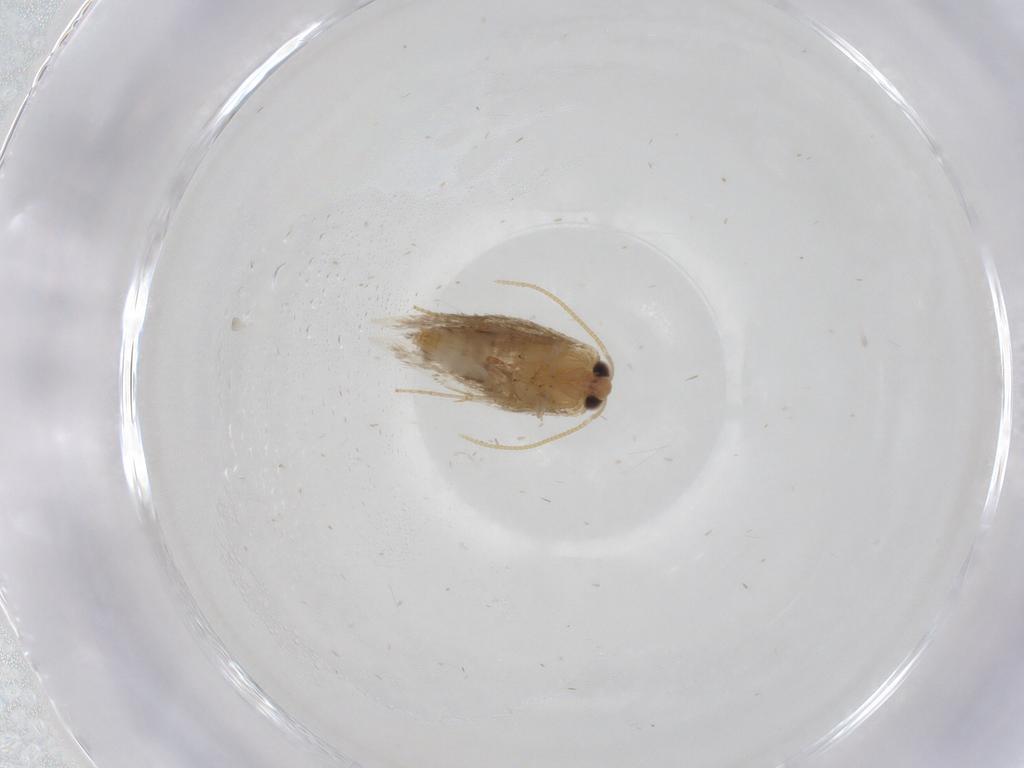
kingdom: Animalia
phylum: Arthropoda
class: Insecta
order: Lepidoptera
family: Nepticulidae
